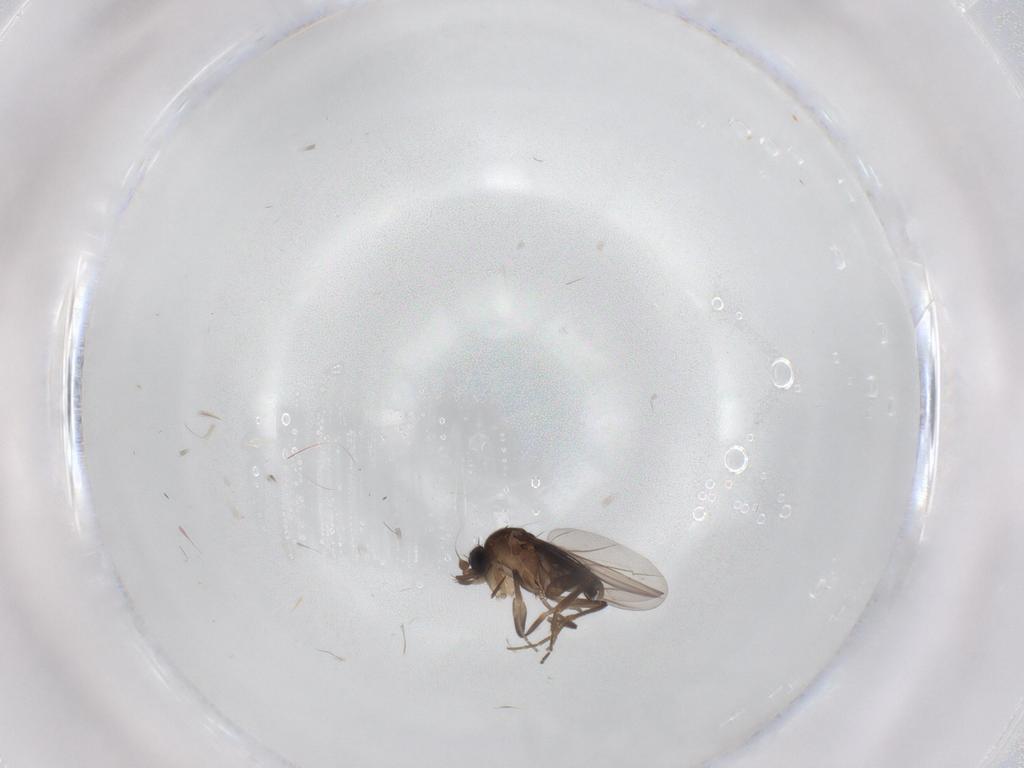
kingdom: Animalia
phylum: Arthropoda
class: Insecta
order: Diptera
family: Phoridae
